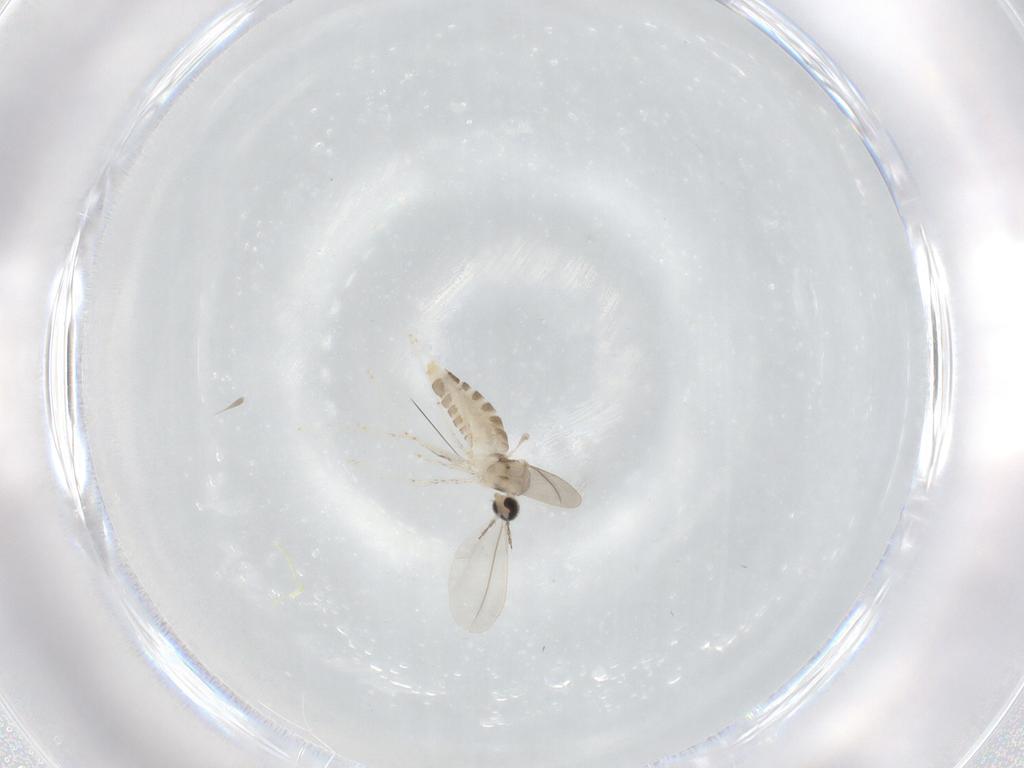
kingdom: Animalia
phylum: Arthropoda
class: Insecta
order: Diptera
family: Cecidomyiidae
